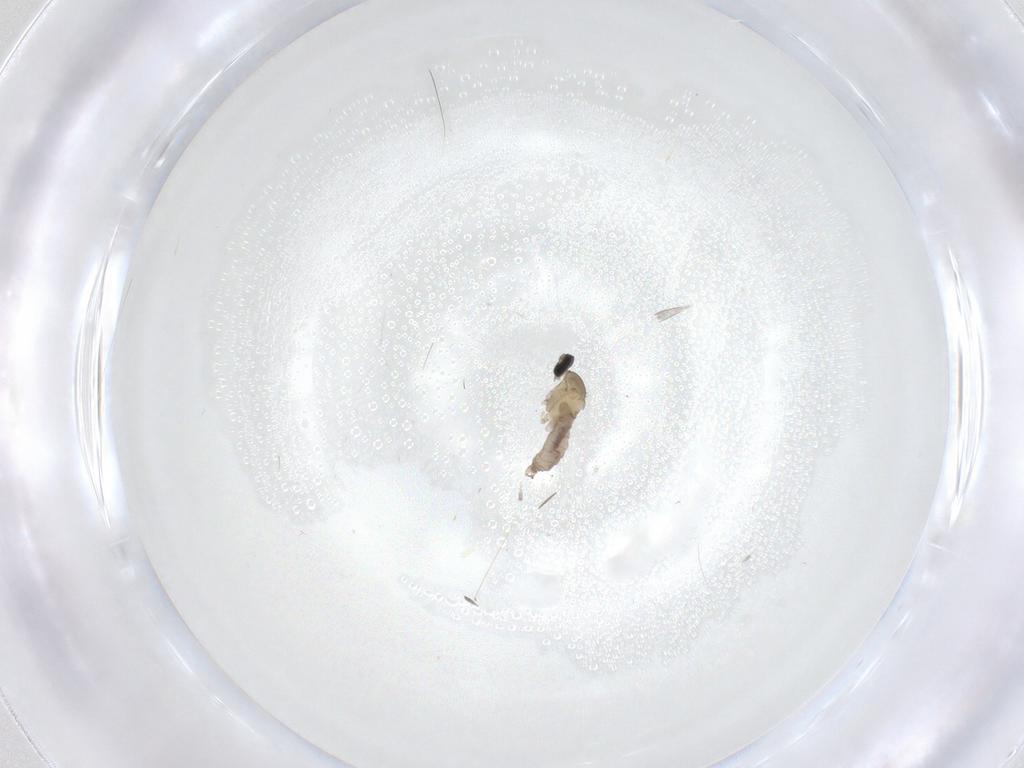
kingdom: Animalia
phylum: Arthropoda
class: Insecta
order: Diptera
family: Cecidomyiidae
